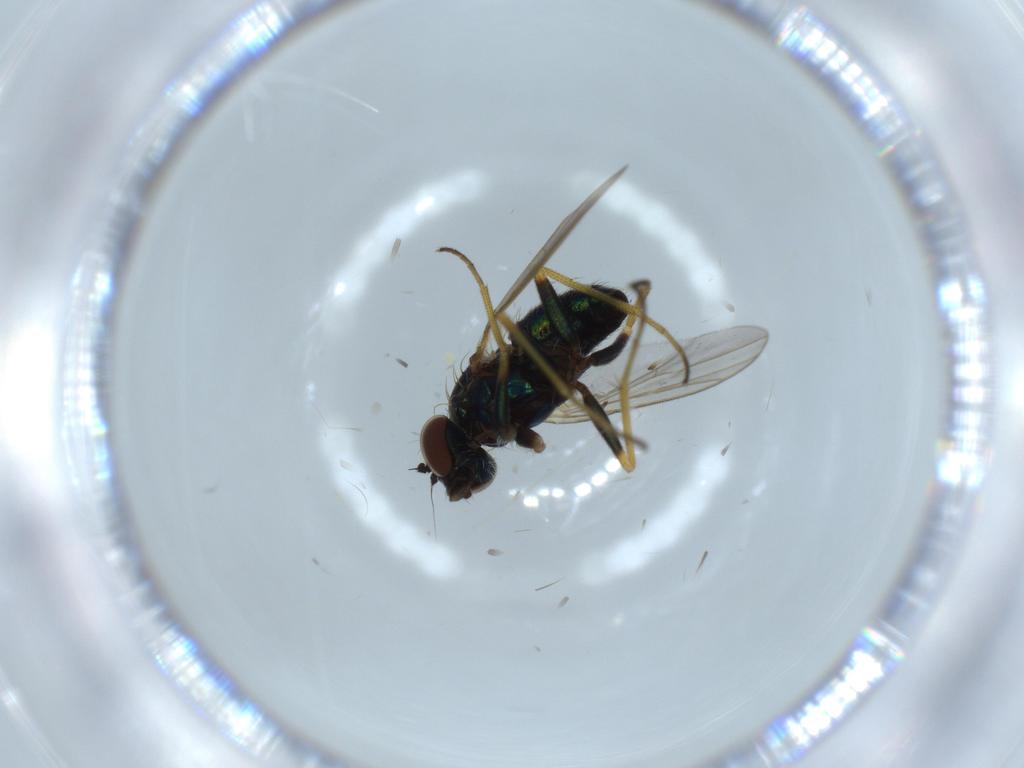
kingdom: Animalia
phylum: Arthropoda
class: Insecta
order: Diptera
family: Dolichopodidae
